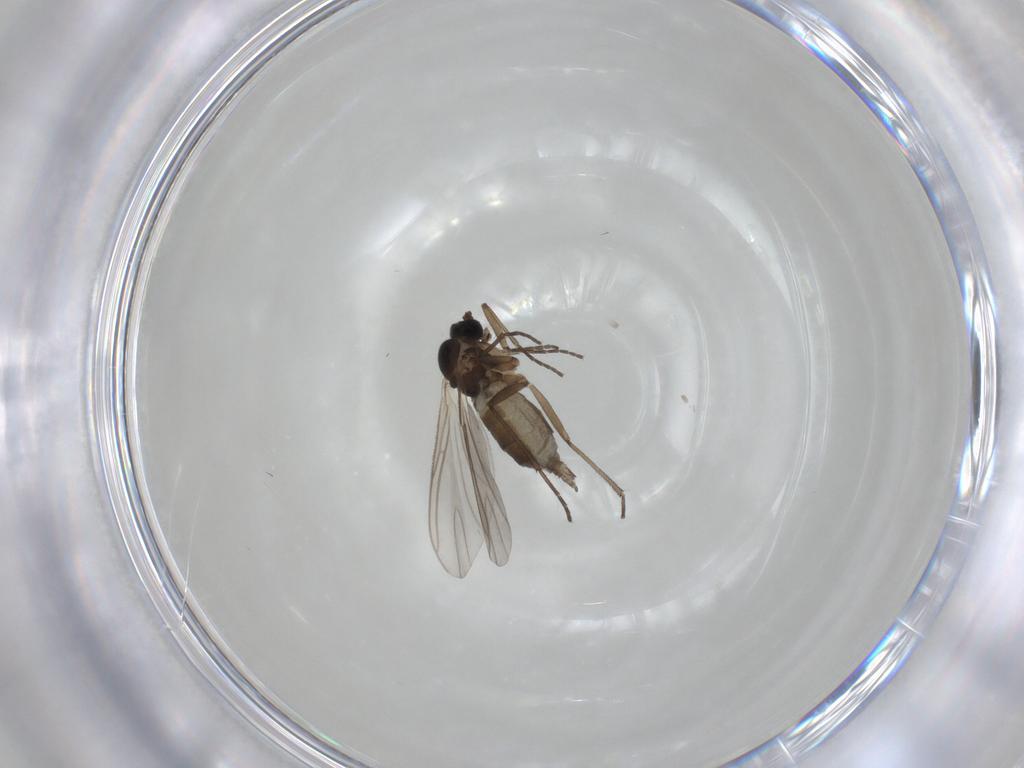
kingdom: Animalia
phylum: Arthropoda
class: Insecta
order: Diptera
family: Empididae
